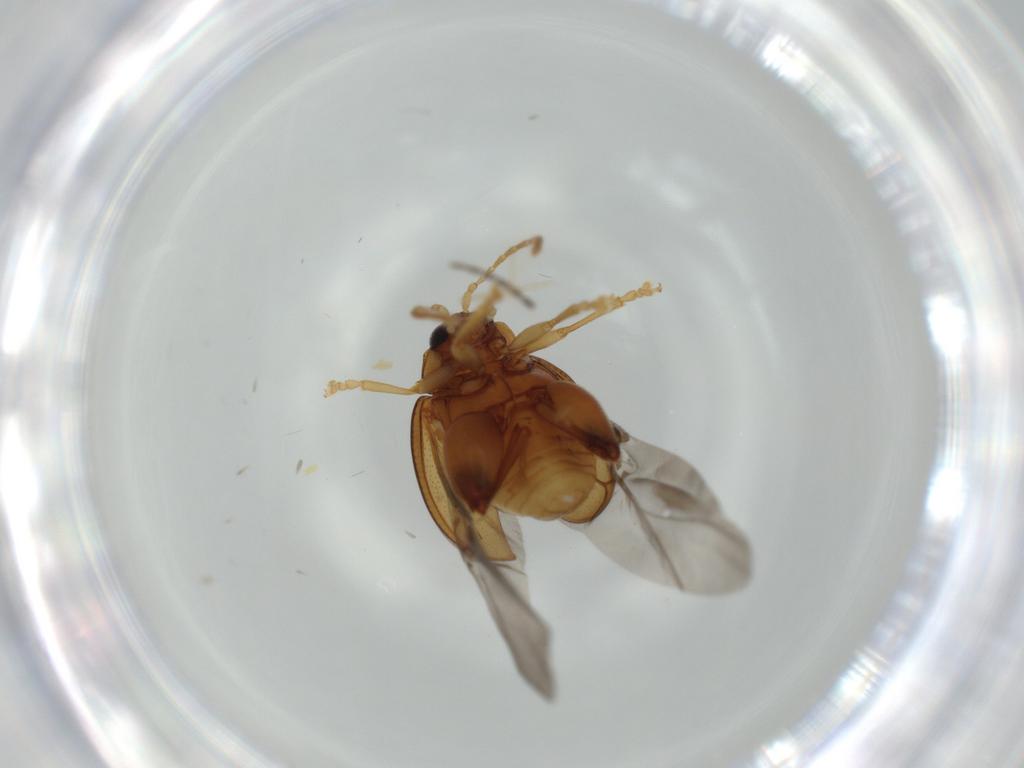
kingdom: Animalia
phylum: Arthropoda
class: Insecta
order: Coleoptera
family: Chrysomelidae
